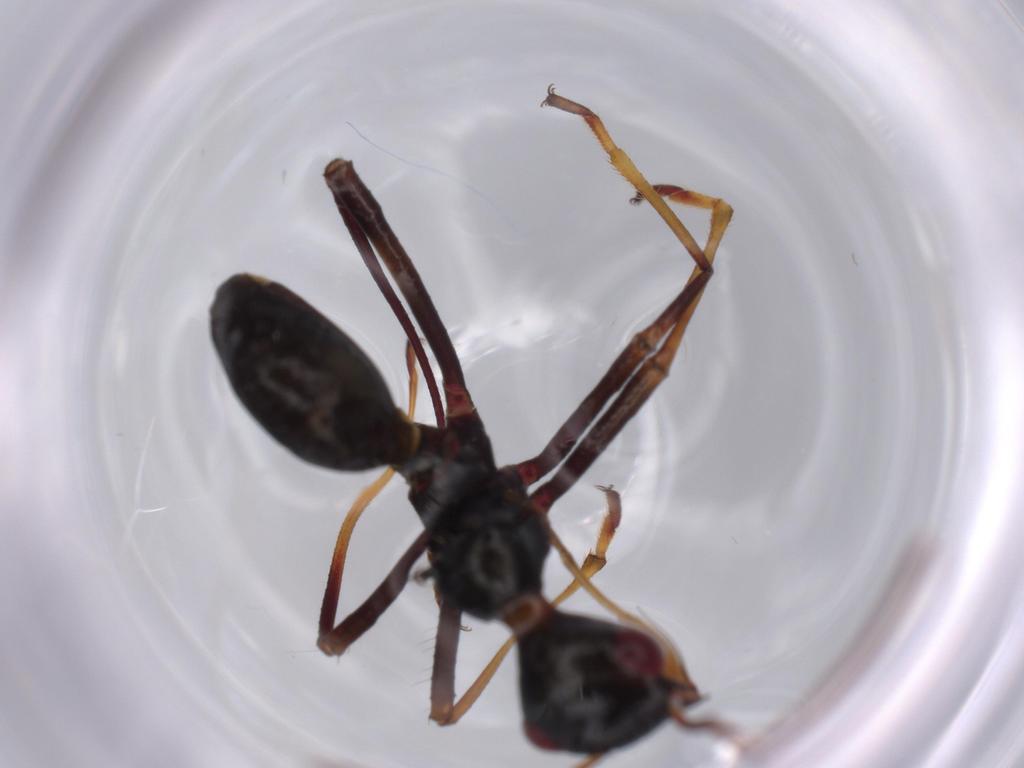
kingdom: Animalia
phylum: Arthropoda
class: Insecta
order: Hemiptera
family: Alydidae
